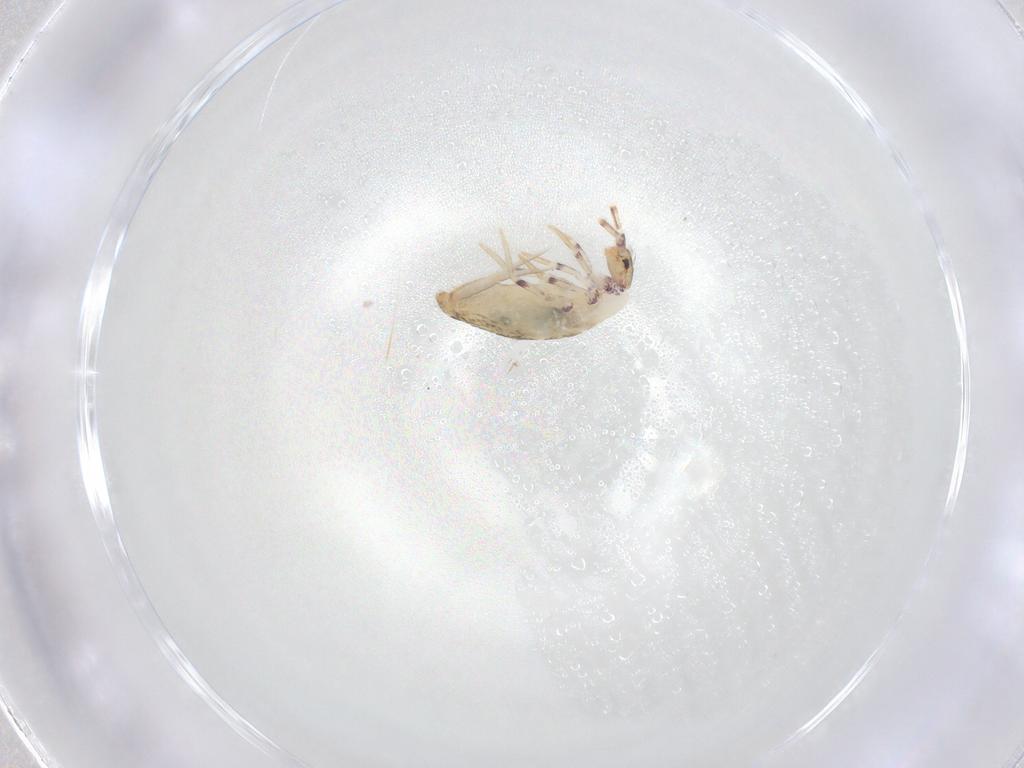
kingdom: Animalia
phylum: Arthropoda
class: Collembola
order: Entomobryomorpha
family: Entomobryidae
